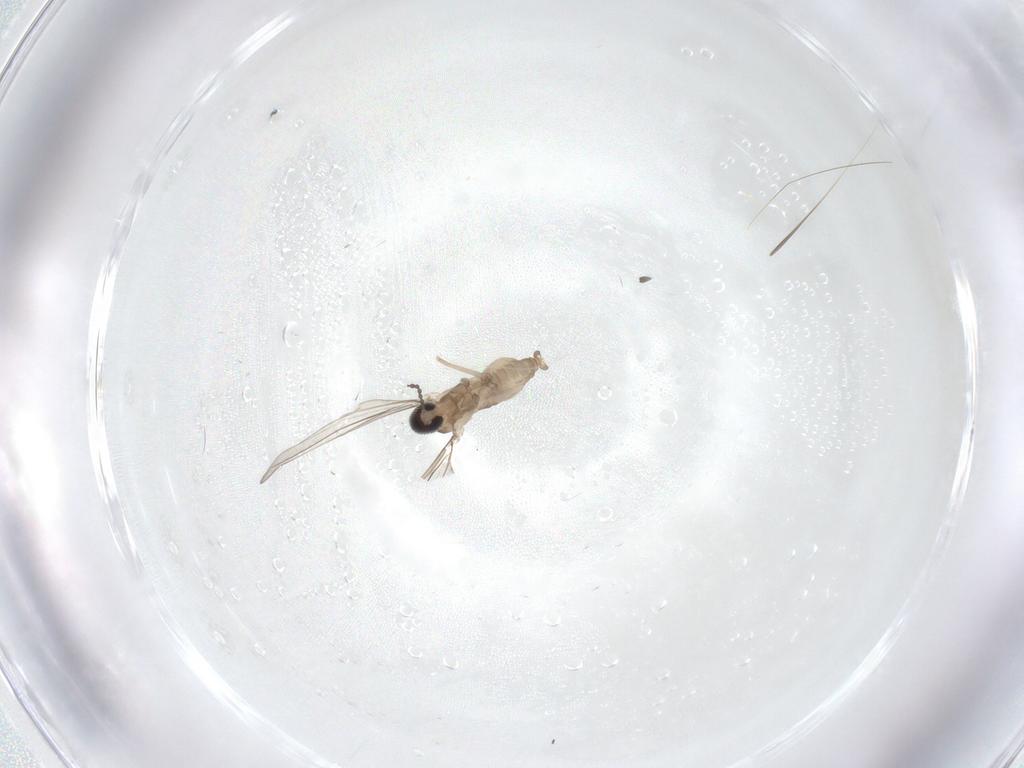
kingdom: Animalia
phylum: Arthropoda
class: Insecta
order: Diptera
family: Cecidomyiidae
